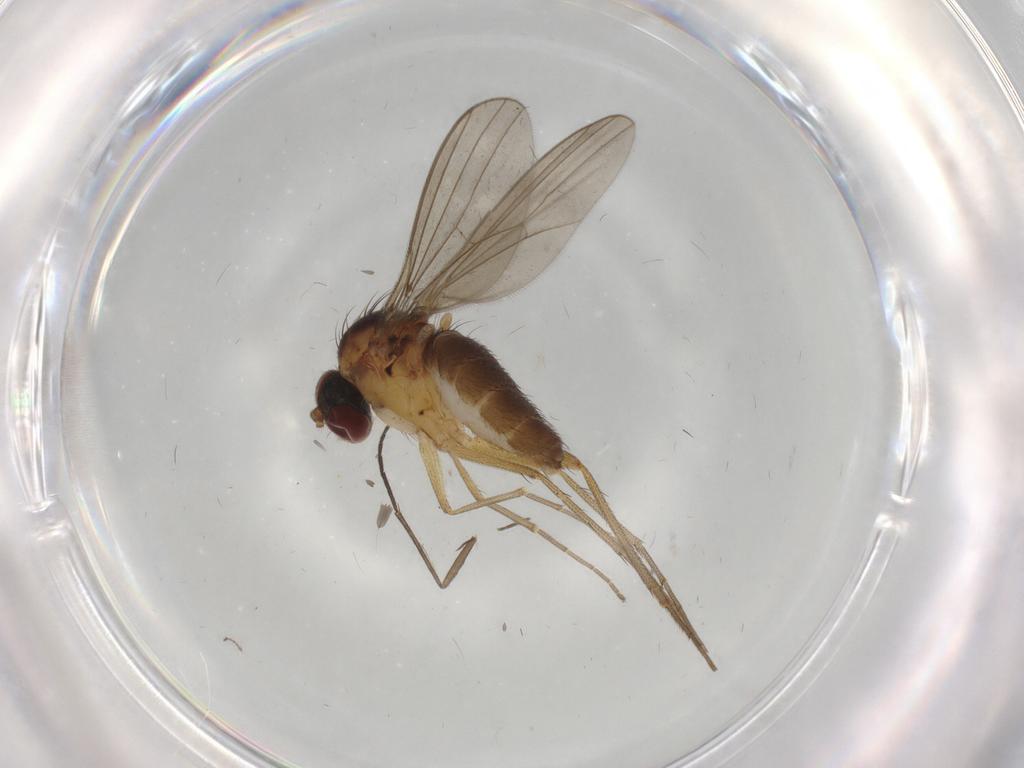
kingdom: Animalia
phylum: Arthropoda
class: Insecta
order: Diptera
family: Dolichopodidae
